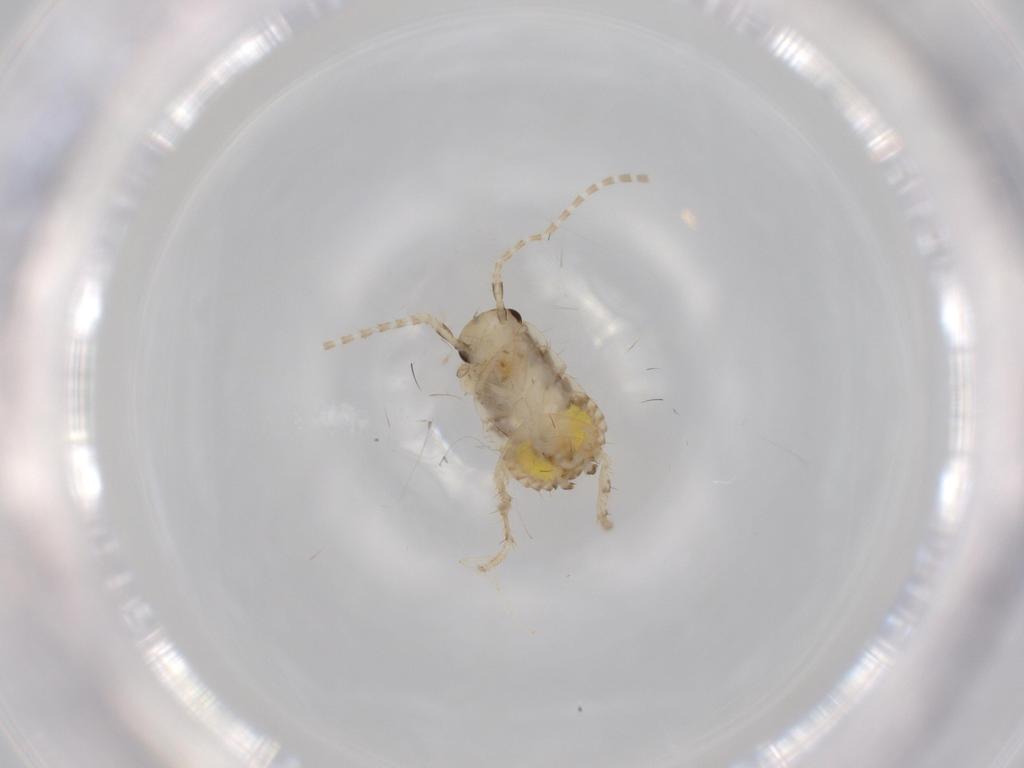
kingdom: Animalia
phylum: Arthropoda
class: Insecta
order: Blattodea
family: Ectobiidae
